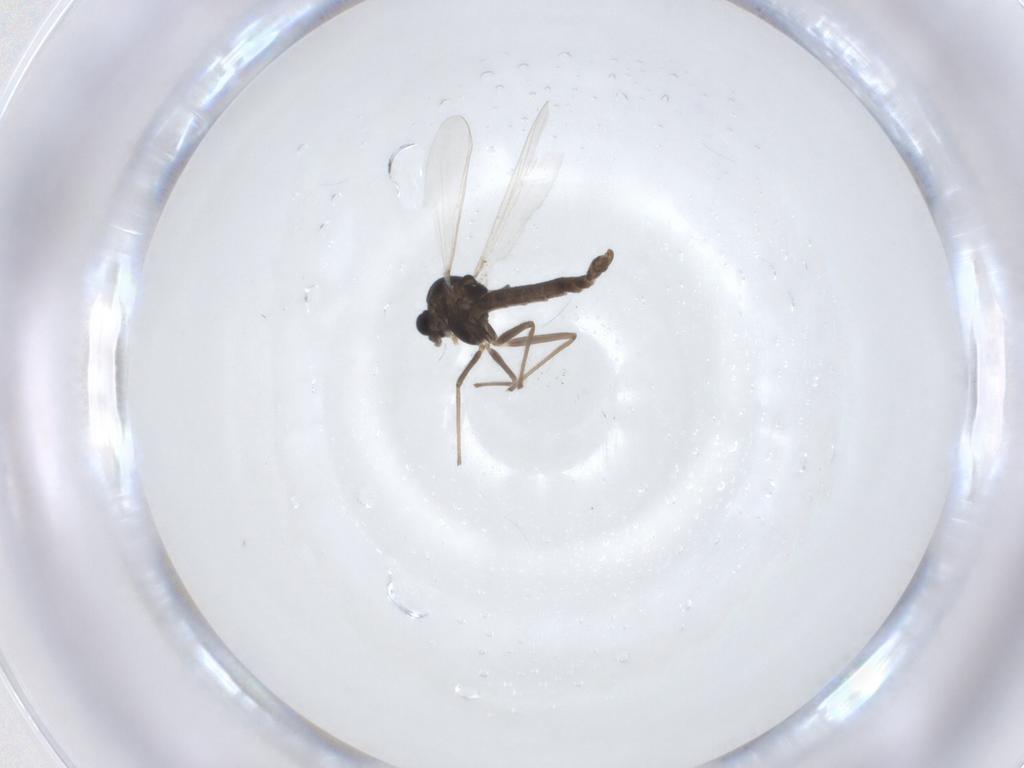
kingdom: Animalia
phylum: Arthropoda
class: Insecta
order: Diptera
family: Chironomidae
